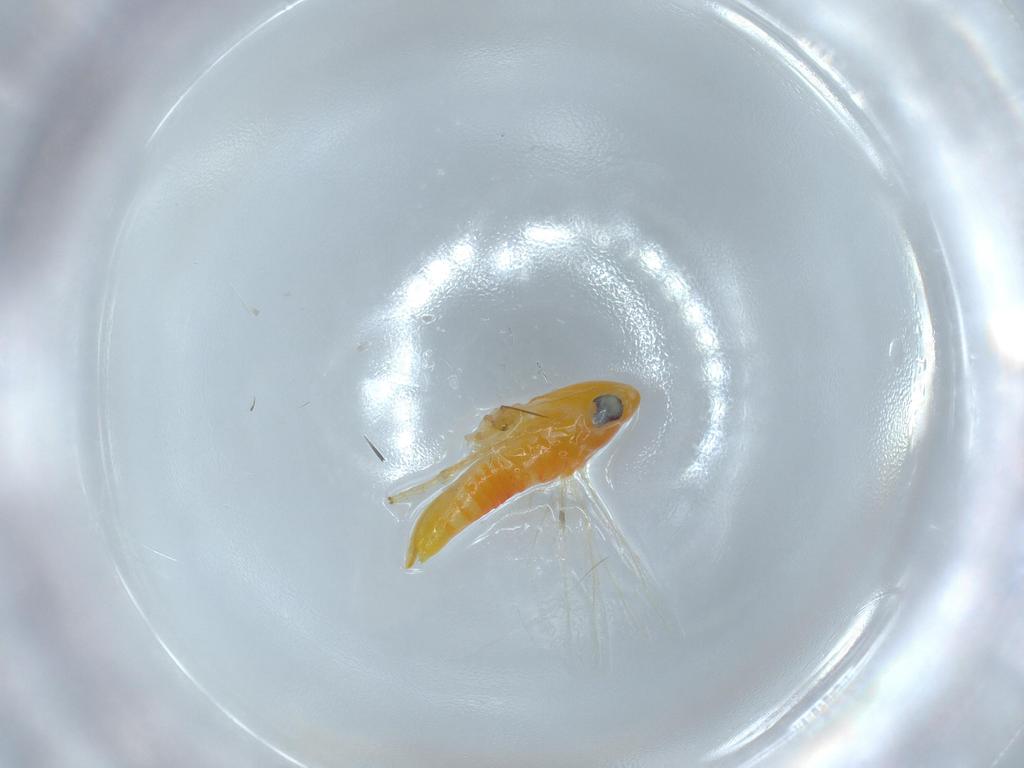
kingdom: Animalia
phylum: Arthropoda
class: Insecta
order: Hemiptera
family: Cicadellidae
